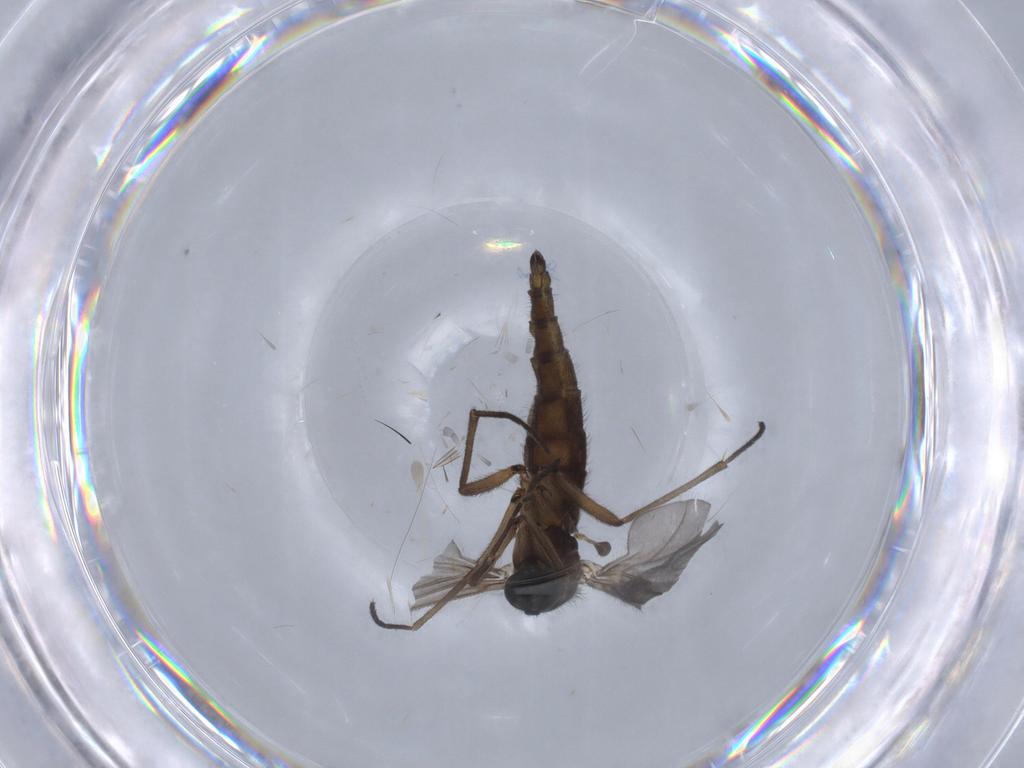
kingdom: Animalia
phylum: Arthropoda
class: Insecta
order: Diptera
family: Sciaridae
